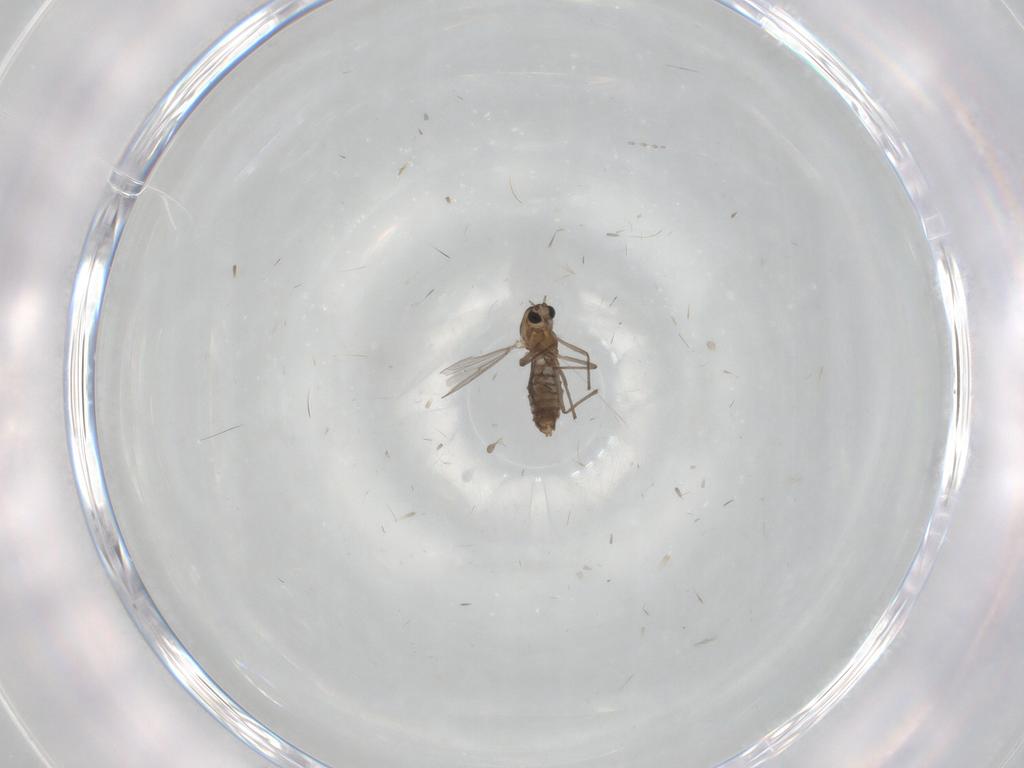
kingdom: Animalia
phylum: Arthropoda
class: Insecta
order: Diptera
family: Chironomidae
